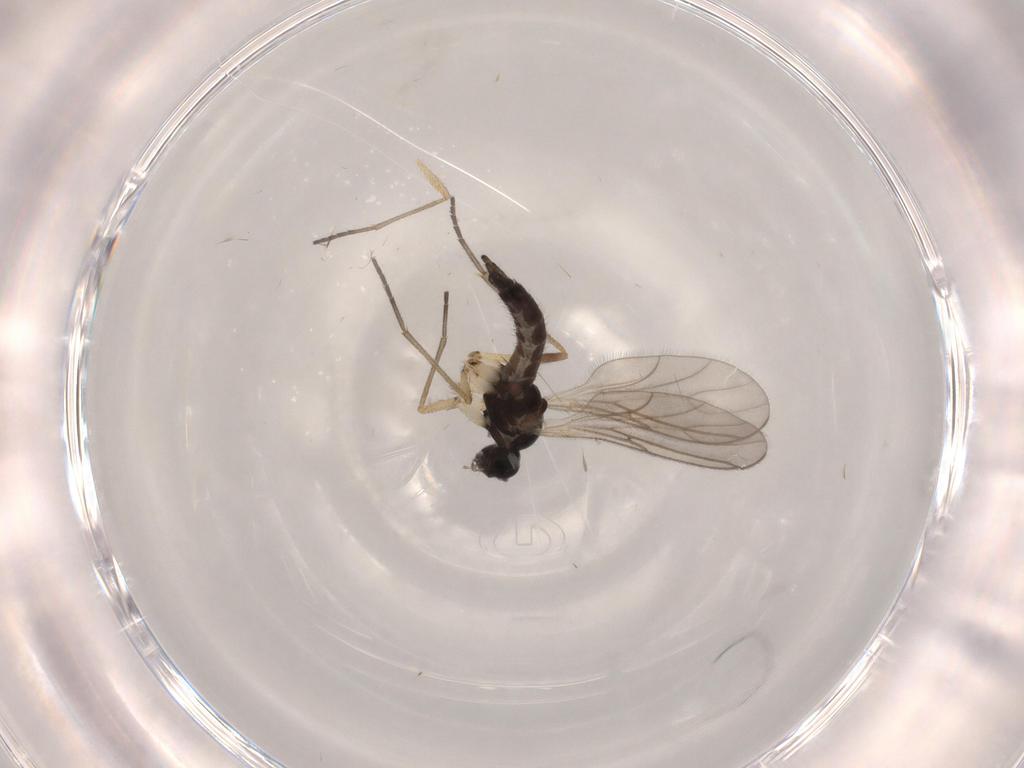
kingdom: Animalia
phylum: Arthropoda
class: Insecta
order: Diptera
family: Sciaridae
